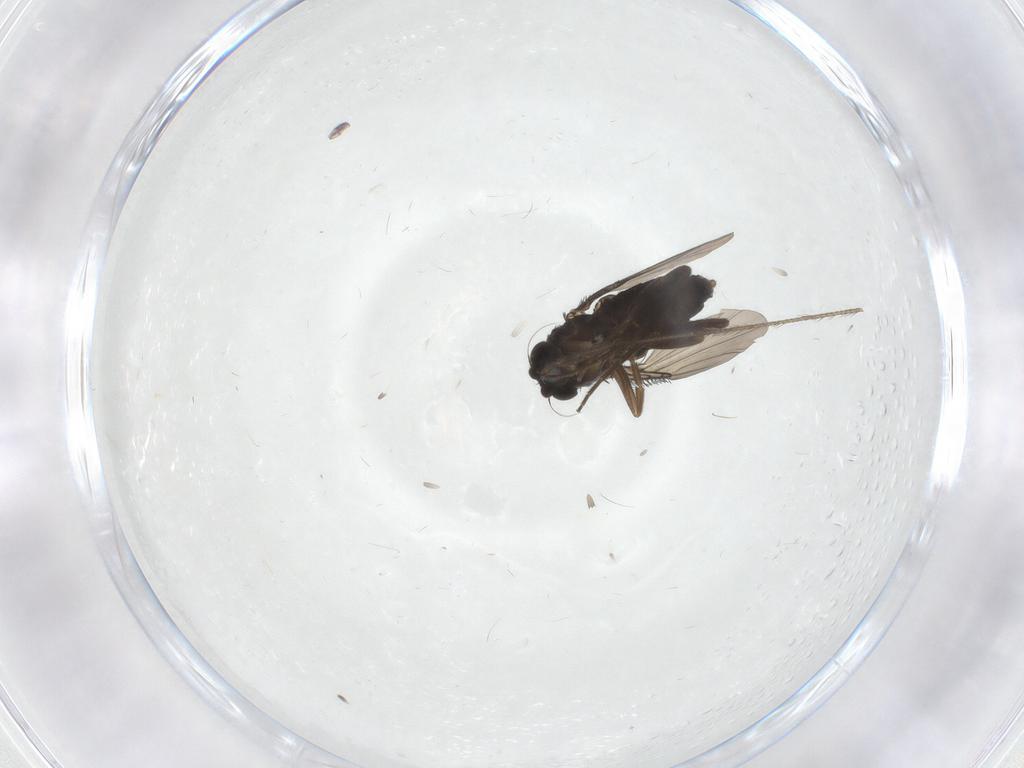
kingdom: Animalia
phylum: Arthropoda
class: Insecta
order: Diptera
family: Phoridae
